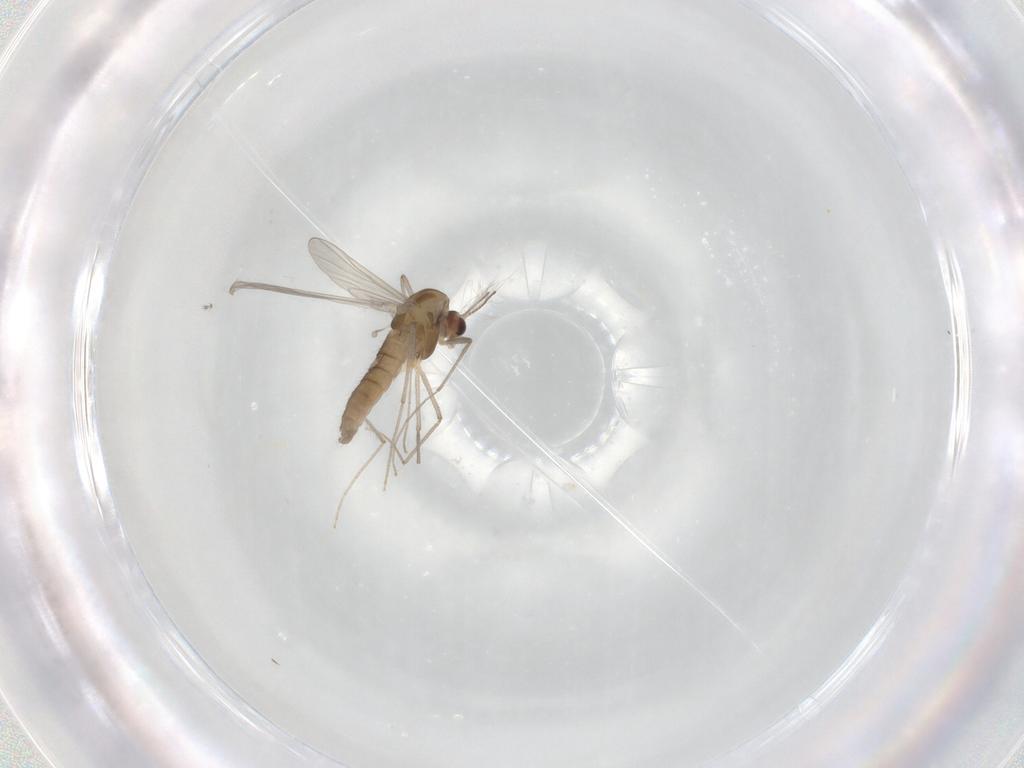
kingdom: Animalia
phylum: Arthropoda
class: Insecta
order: Diptera
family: Chironomidae
